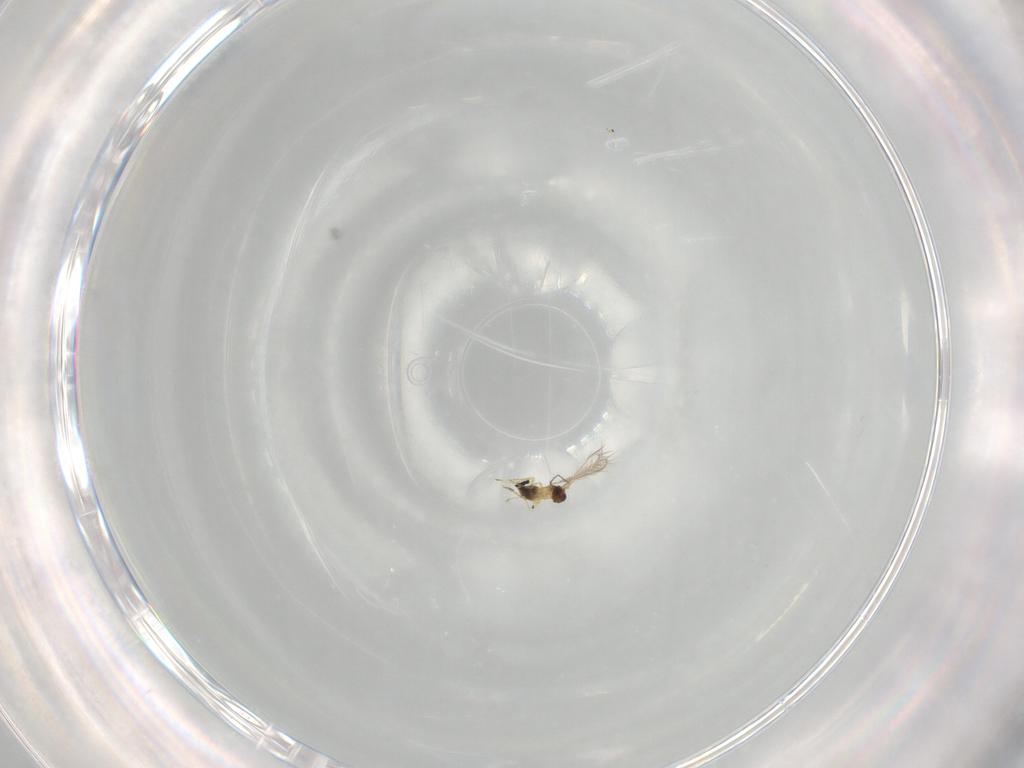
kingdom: Animalia
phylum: Arthropoda
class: Insecta
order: Hymenoptera
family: Platygastridae
